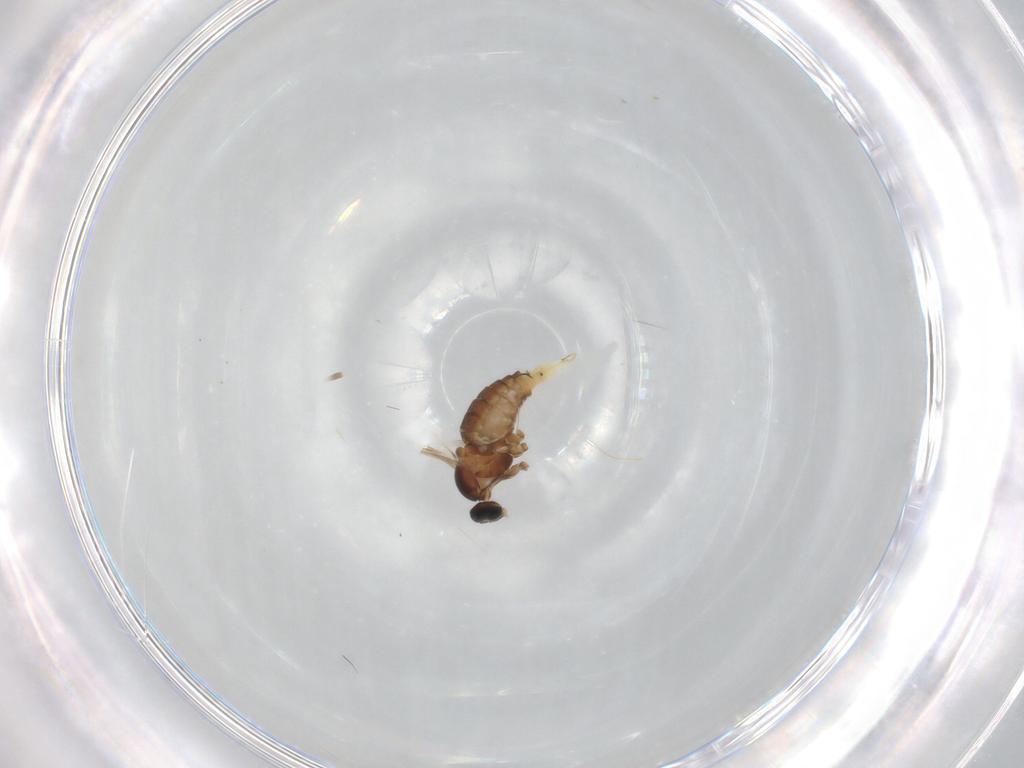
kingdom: Animalia
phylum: Arthropoda
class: Insecta
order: Diptera
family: Cecidomyiidae
